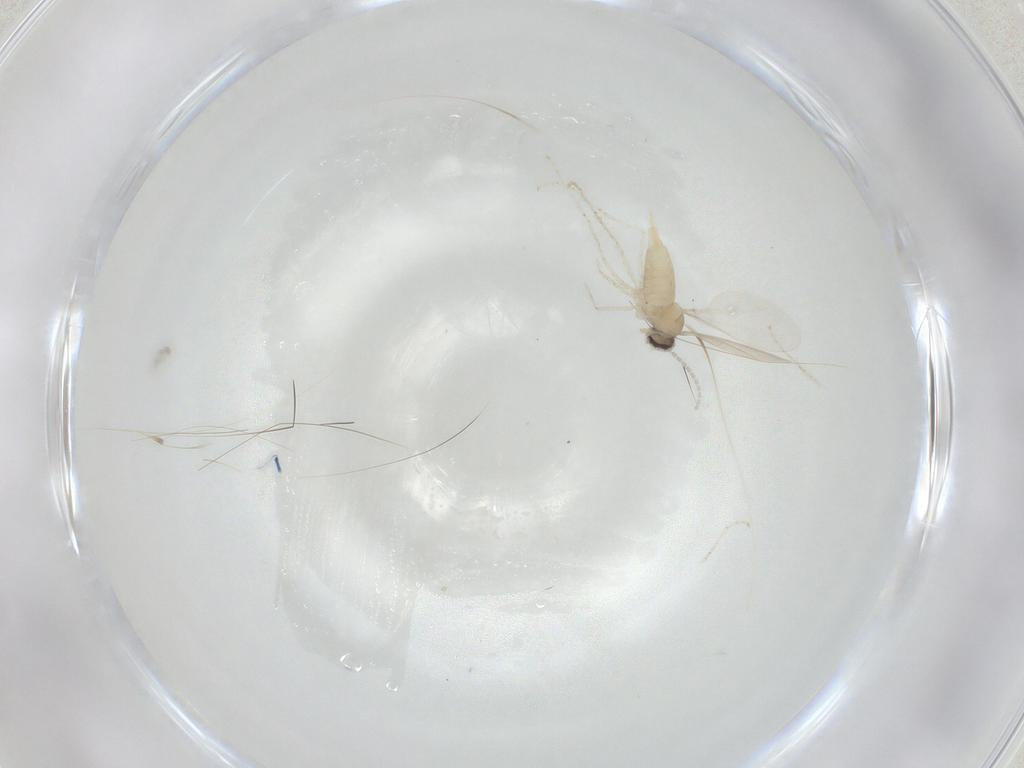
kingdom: Animalia
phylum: Arthropoda
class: Insecta
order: Diptera
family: Cecidomyiidae
